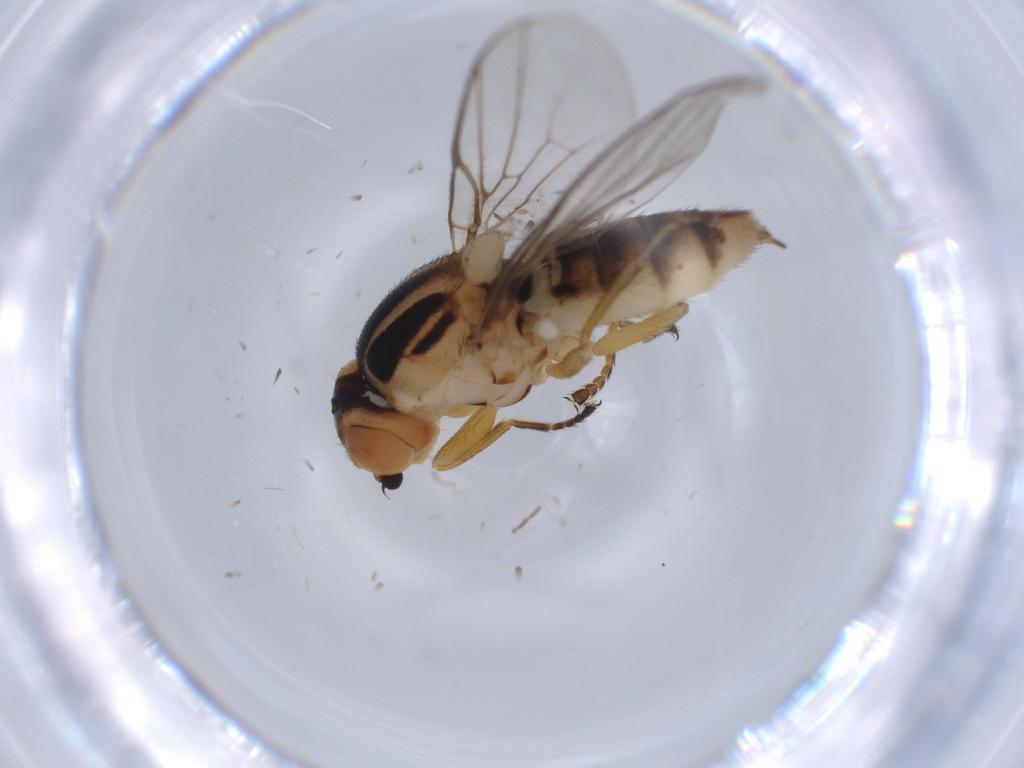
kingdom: Animalia
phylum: Arthropoda
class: Insecta
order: Diptera
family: Chloropidae
